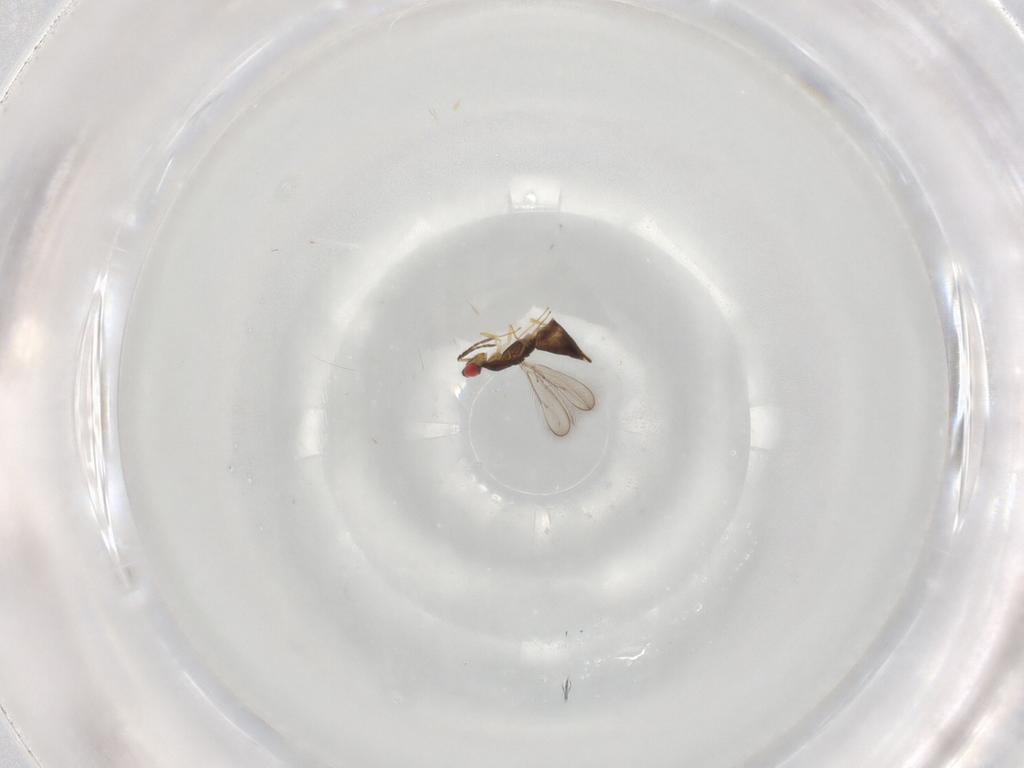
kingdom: Animalia
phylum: Arthropoda
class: Insecta
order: Hymenoptera
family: Eulophidae
